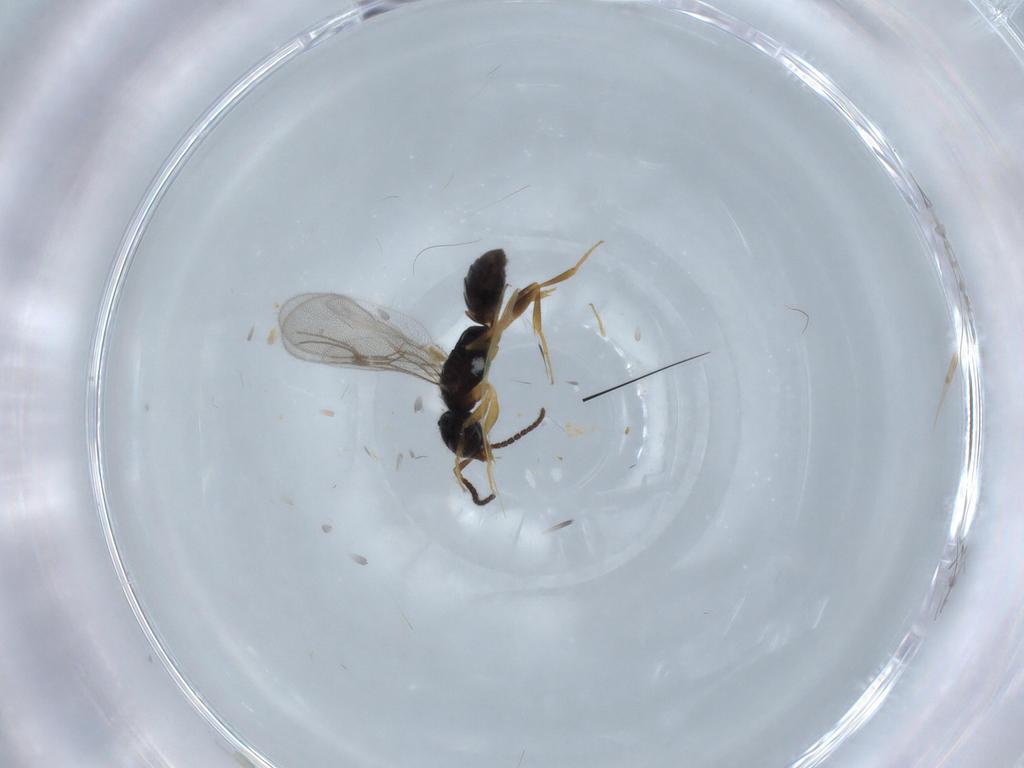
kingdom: Animalia
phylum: Arthropoda
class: Insecta
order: Hymenoptera
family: Bethylidae
